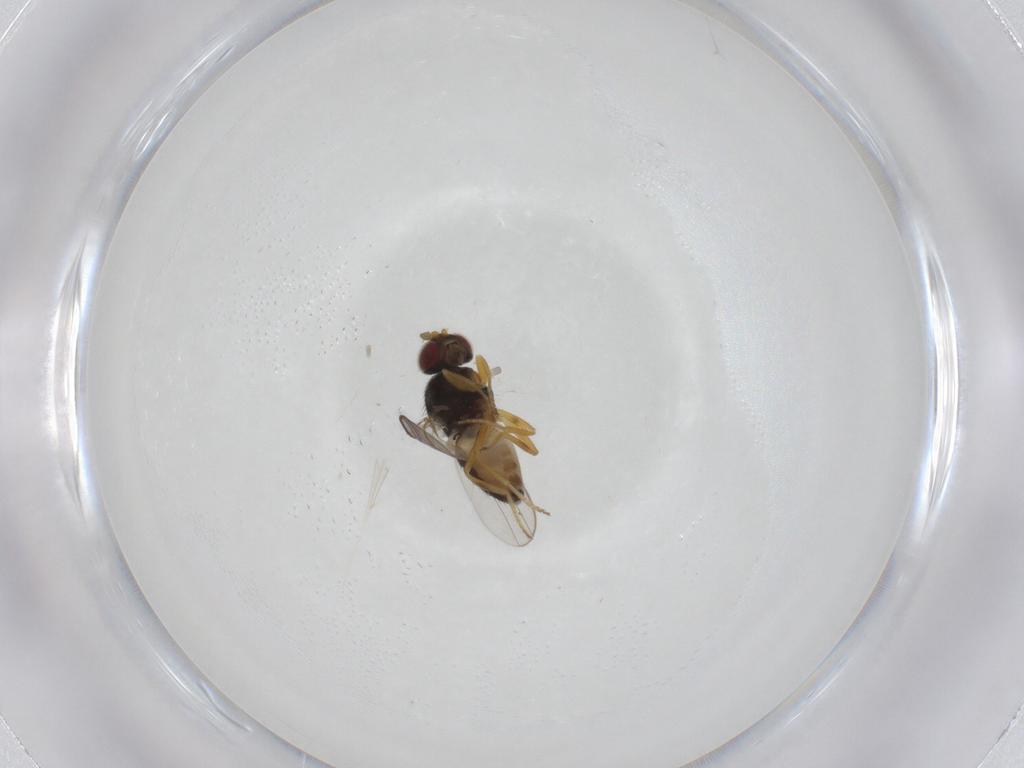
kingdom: Animalia
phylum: Arthropoda
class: Insecta
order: Diptera
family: Chloropidae
